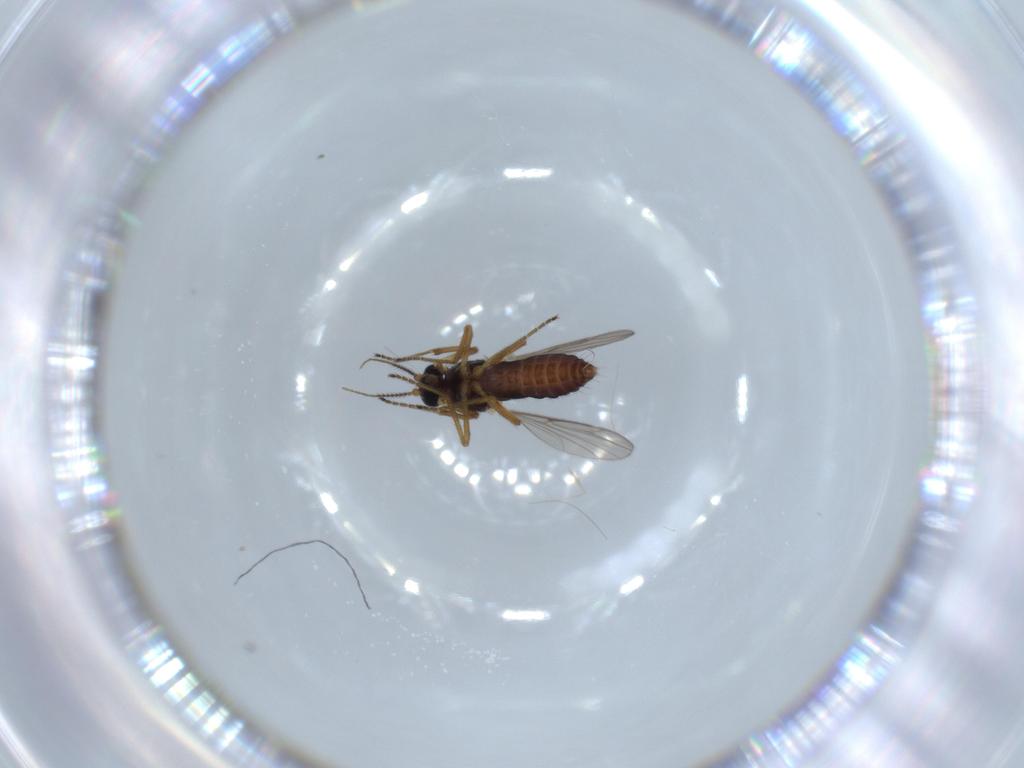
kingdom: Animalia
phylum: Arthropoda
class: Insecta
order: Diptera
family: Ceratopogonidae
